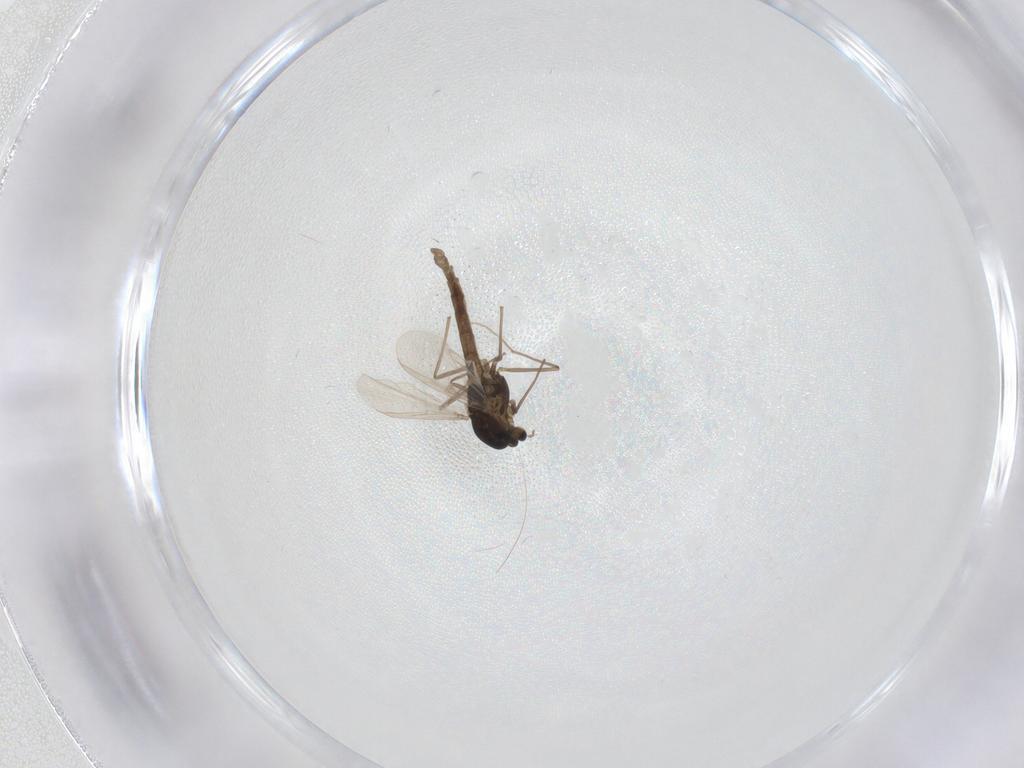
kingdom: Animalia
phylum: Arthropoda
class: Insecta
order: Diptera
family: Chironomidae
